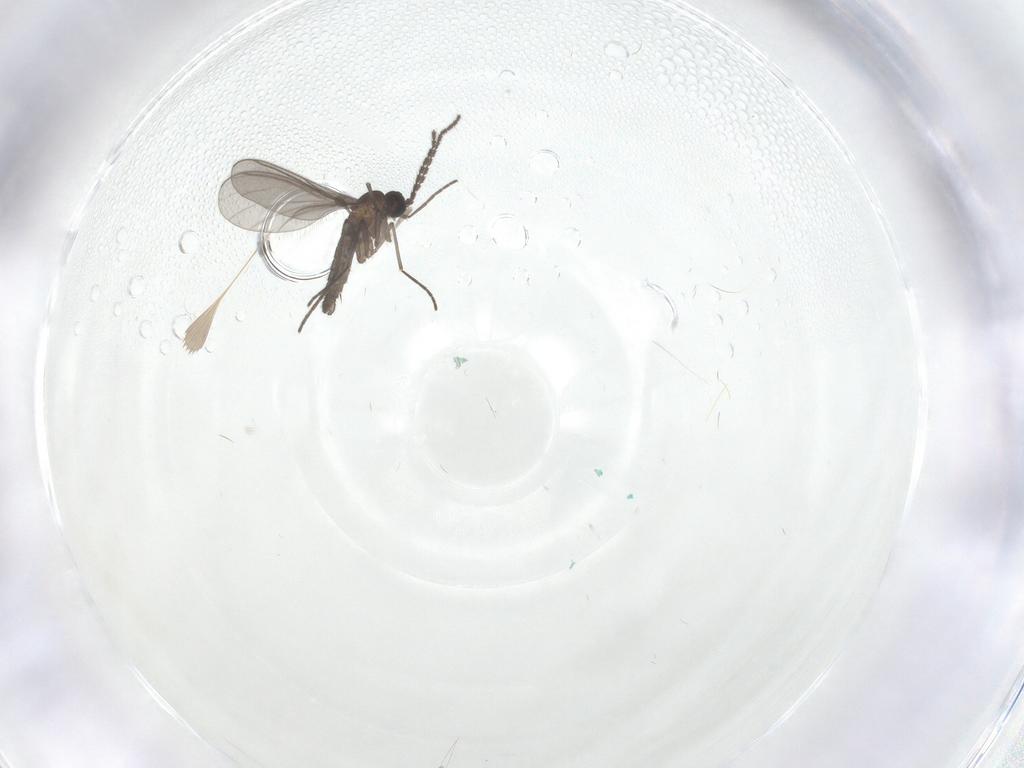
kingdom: Animalia
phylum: Arthropoda
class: Insecta
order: Diptera
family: Sciaridae
